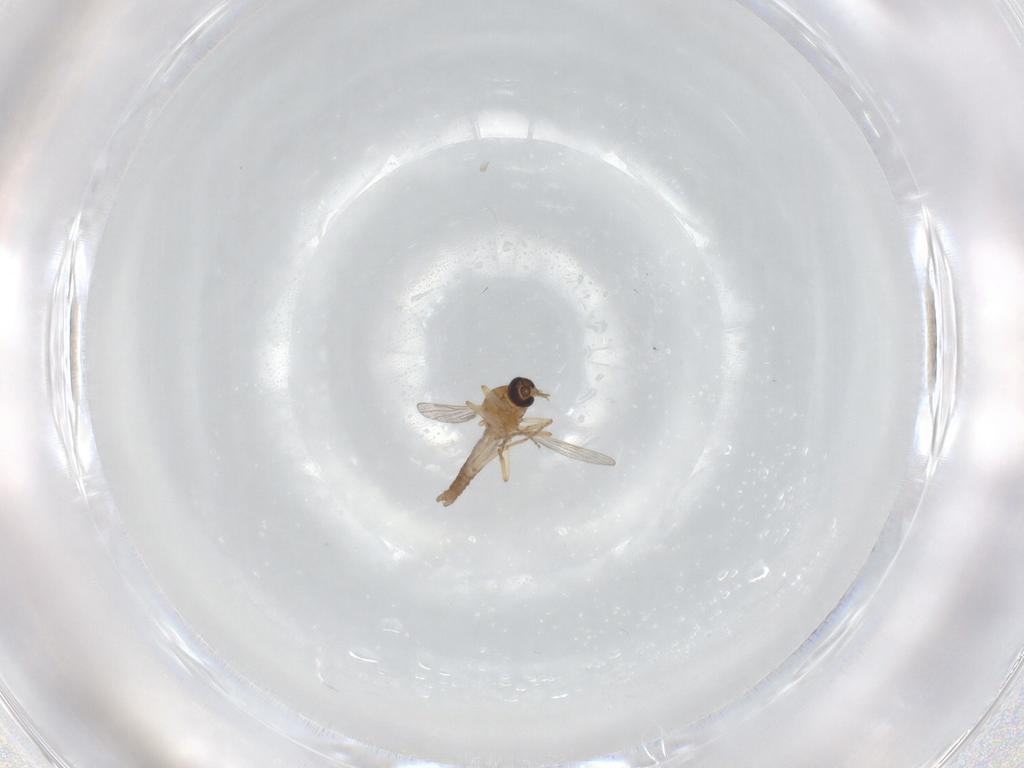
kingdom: Animalia
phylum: Arthropoda
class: Insecta
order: Diptera
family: Ceratopogonidae
